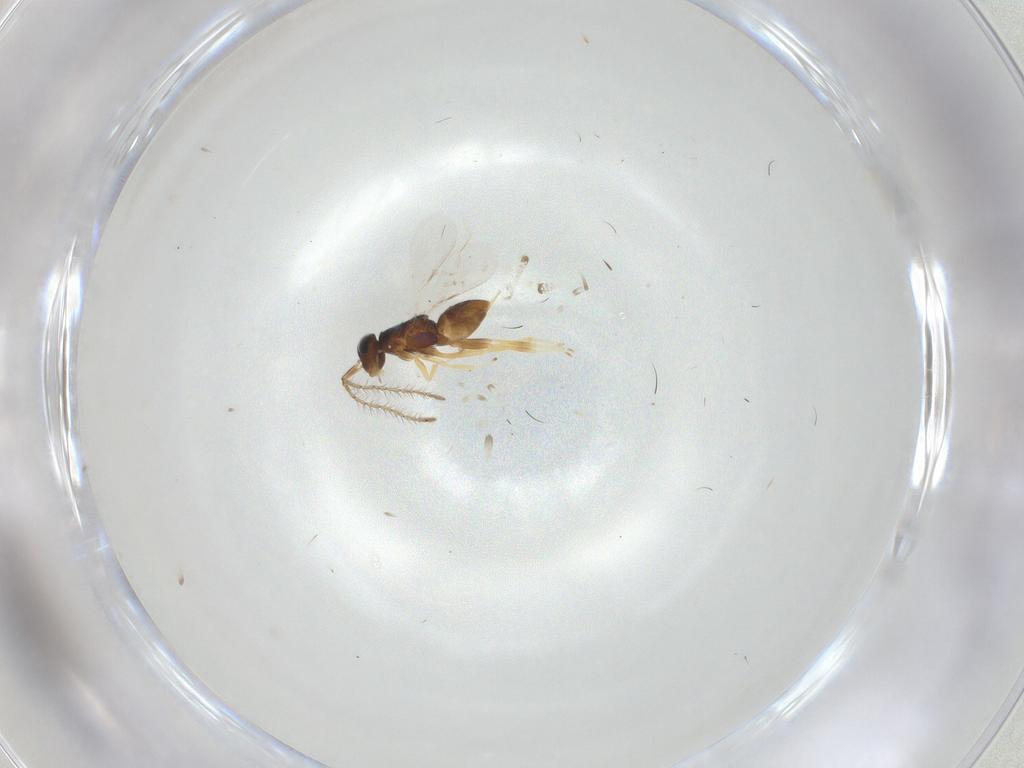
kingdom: Animalia
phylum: Arthropoda
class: Insecta
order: Hymenoptera
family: Encyrtidae
